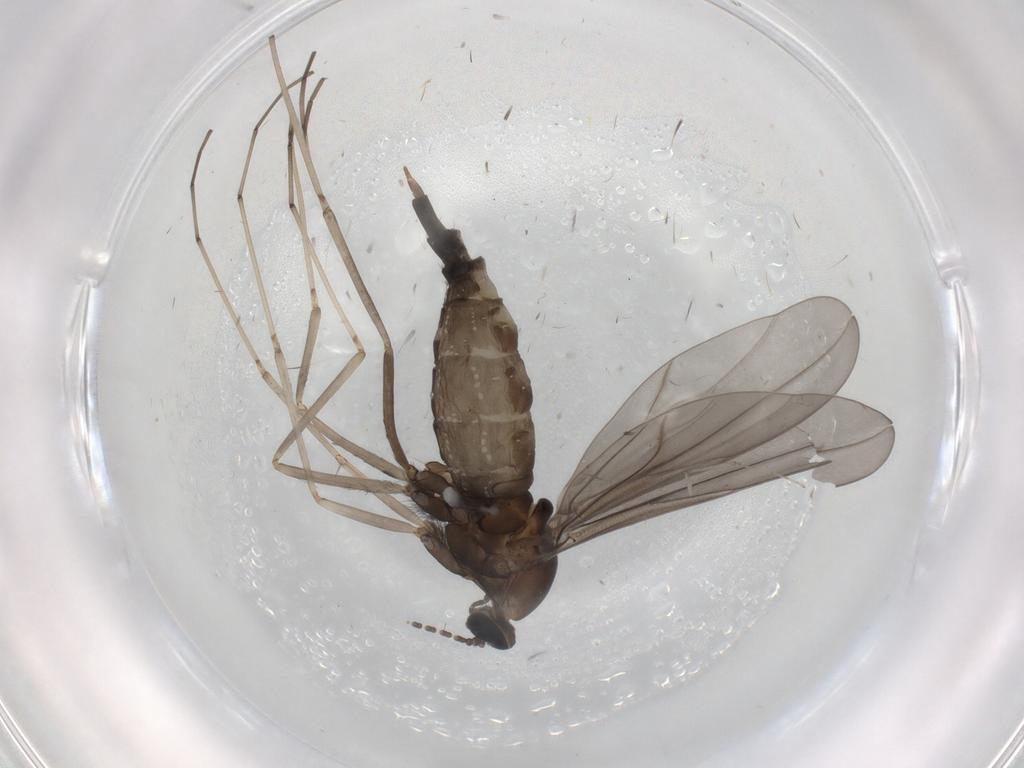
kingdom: Animalia
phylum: Arthropoda
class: Insecta
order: Diptera
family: Cecidomyiidae
